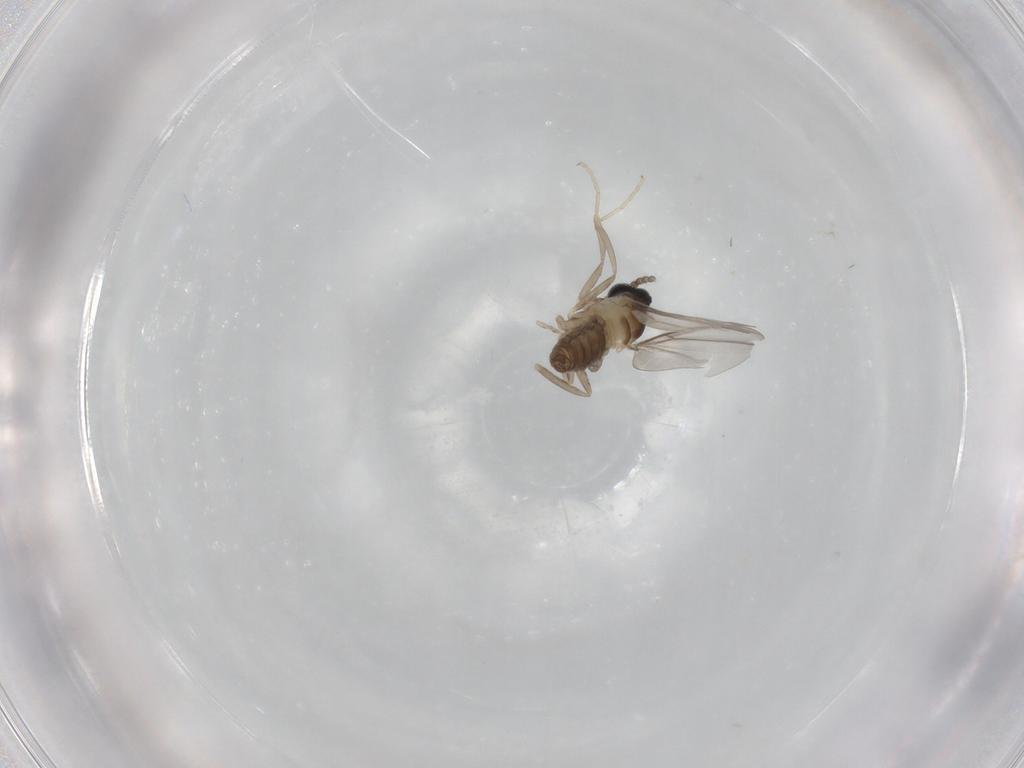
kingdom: Animalia
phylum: Arthropoda
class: Insecta
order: Diptera
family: Cecidomyiidae
